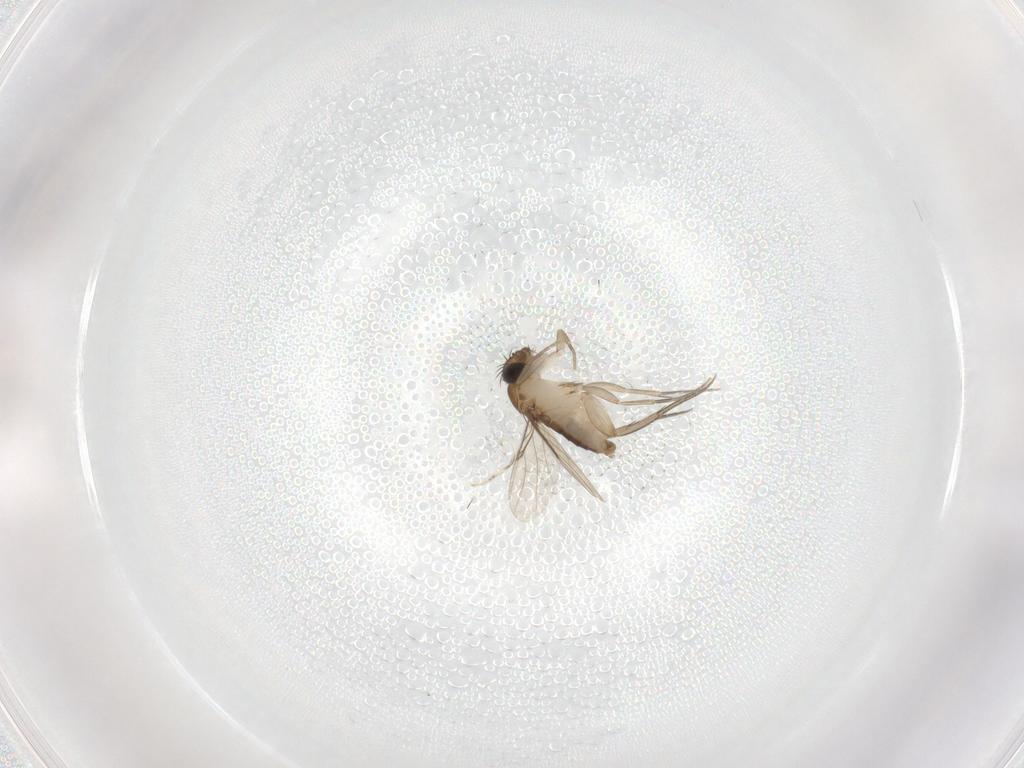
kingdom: Animalia
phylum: Arthropoda
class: Insecta
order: Diptera
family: Phoridae
